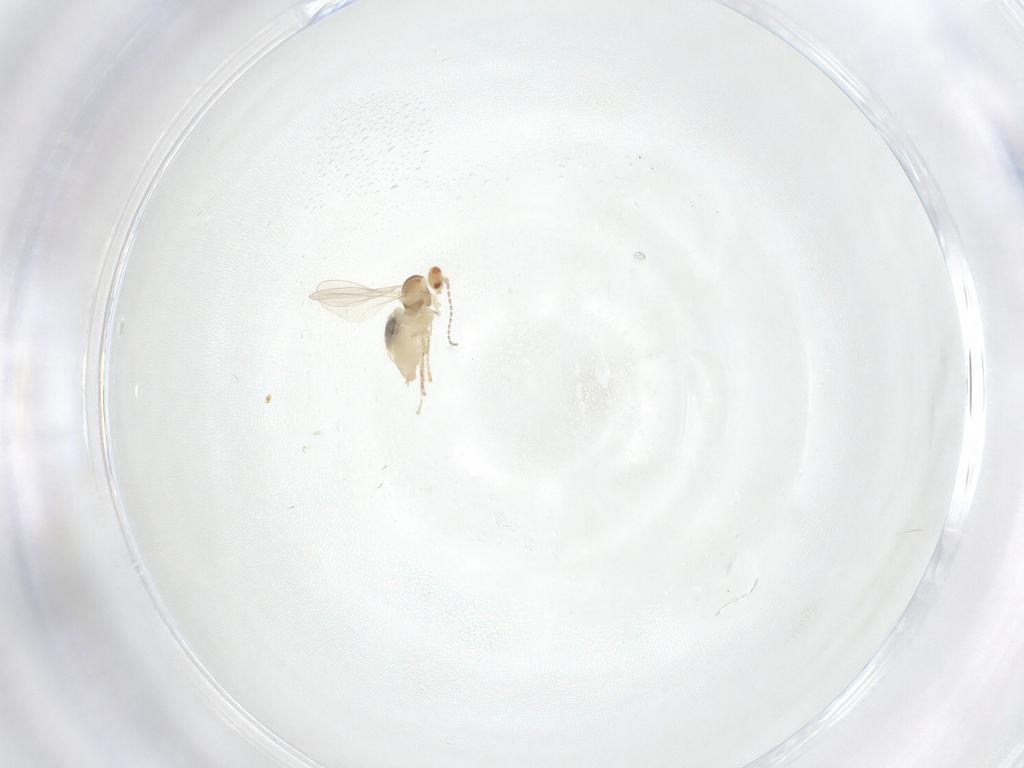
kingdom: Animalia
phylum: Arthropoda
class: Insecta
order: Diptera
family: Cecidomyiidae
